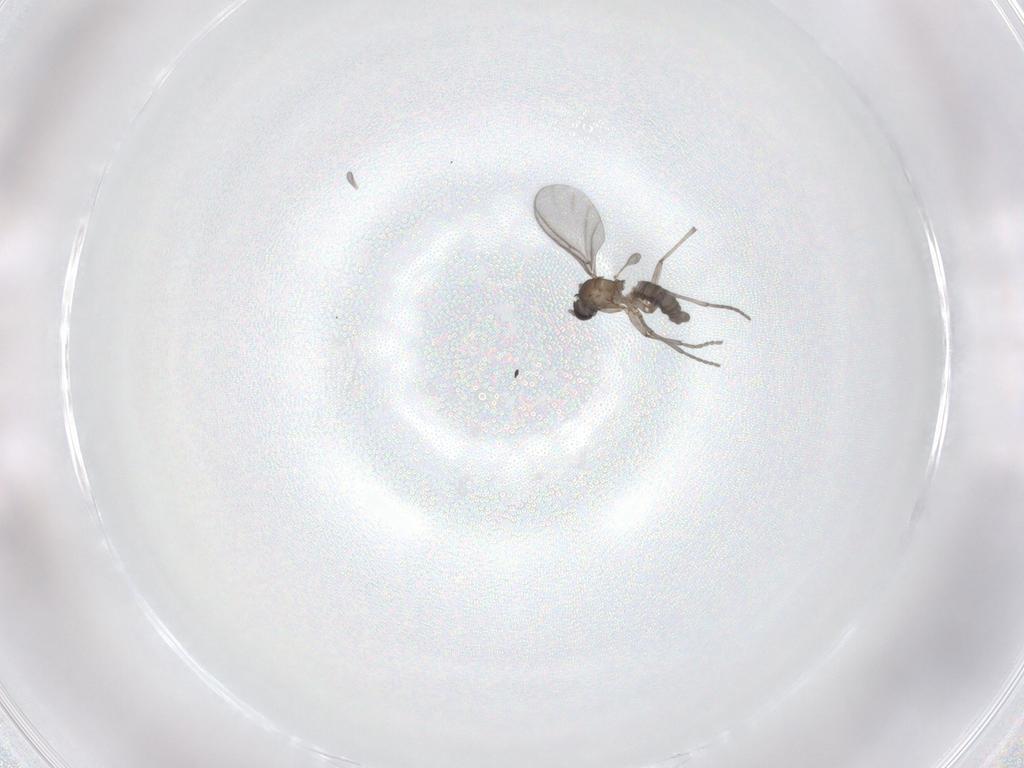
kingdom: Animalia
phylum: Arthropoda
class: Insecta
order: Diptera
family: Sciaridae
